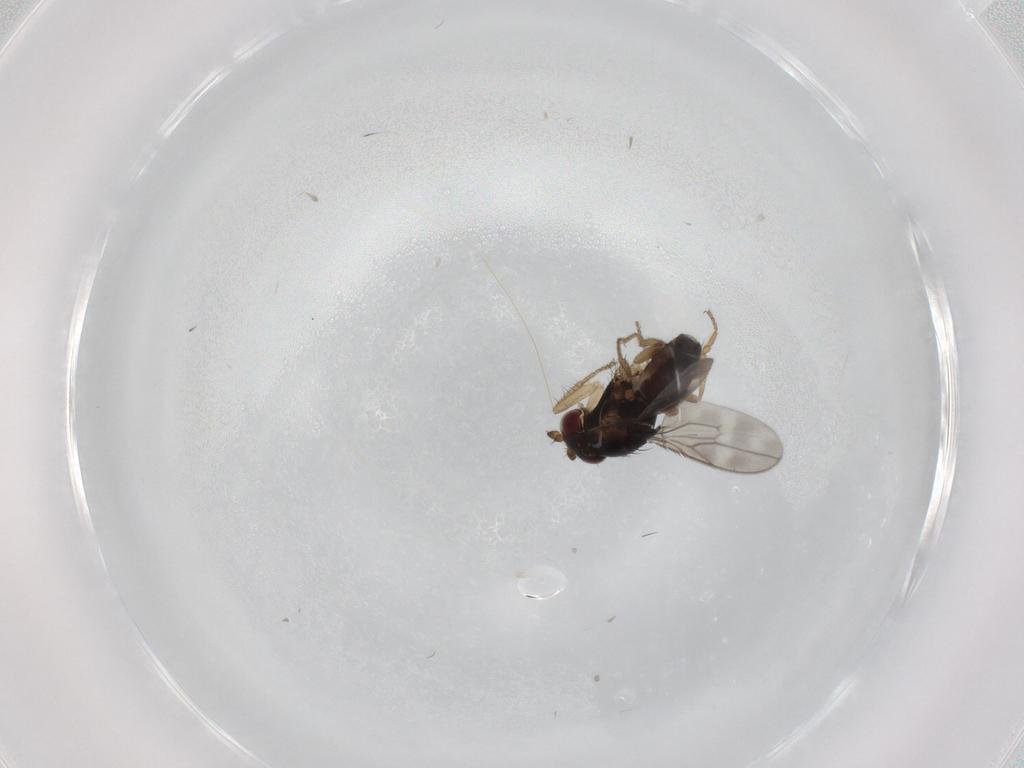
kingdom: Animalia
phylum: Arthropoda
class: Insecta
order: Diptera
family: Sphaeroceridae
